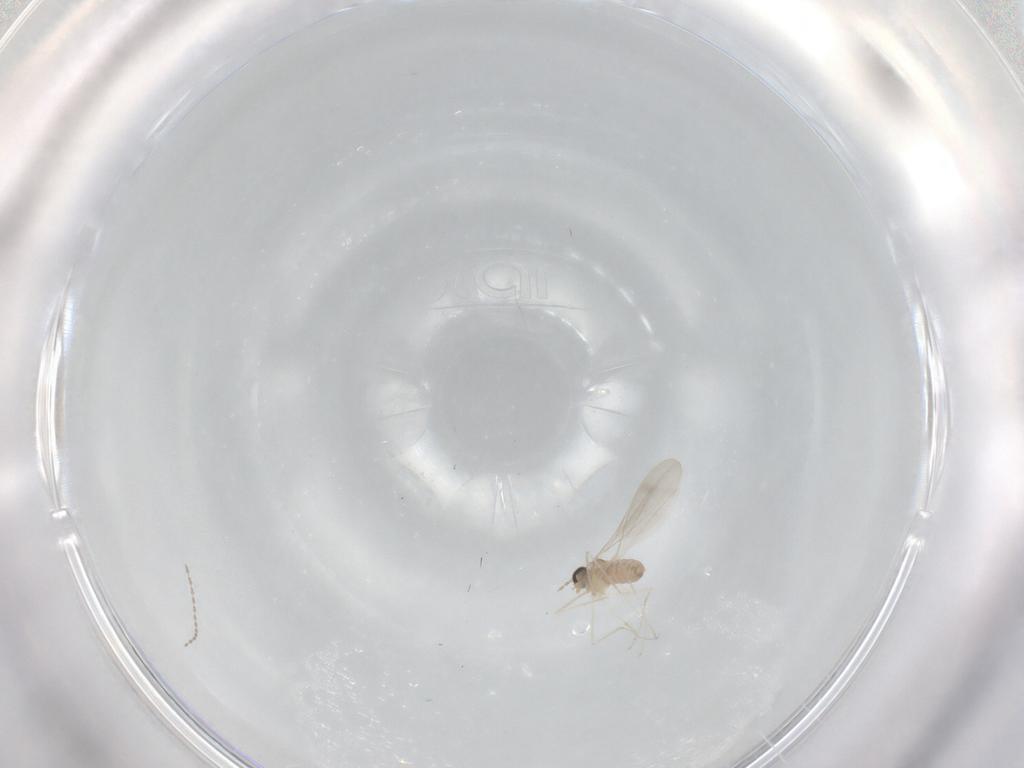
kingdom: Animalia
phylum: Arthropoda
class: Insecta
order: Diptera
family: Cecidomyiidae
